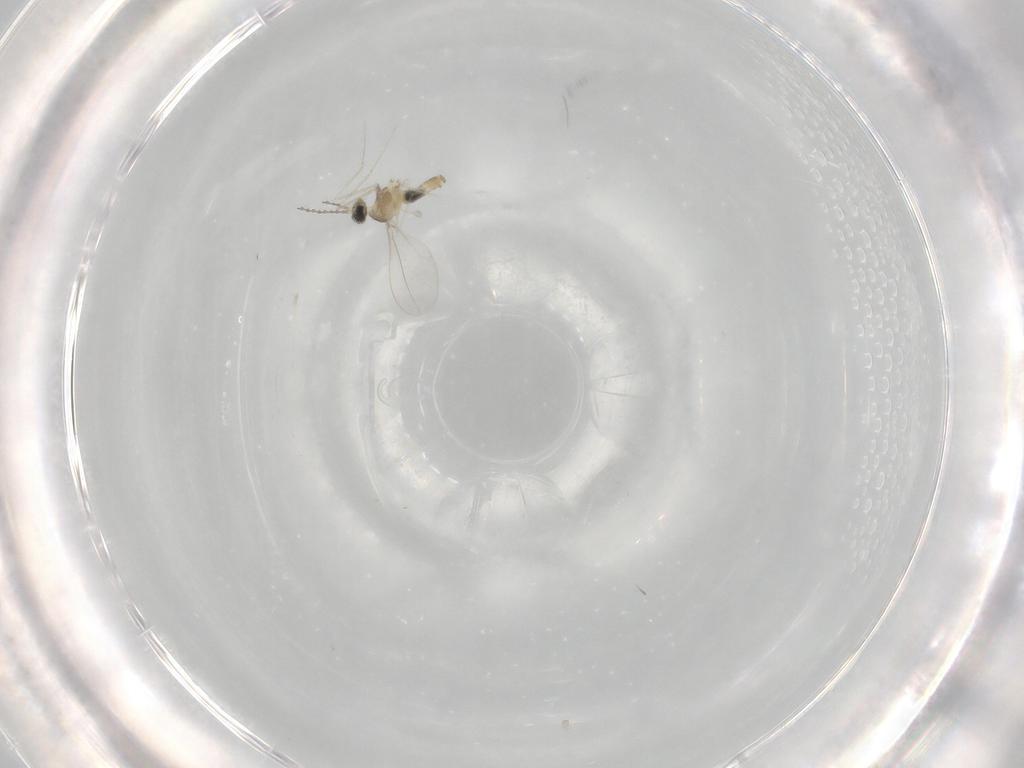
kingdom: Animalia
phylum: Arthropoda
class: Insecta
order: Diptera
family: Cecidomyiidae
